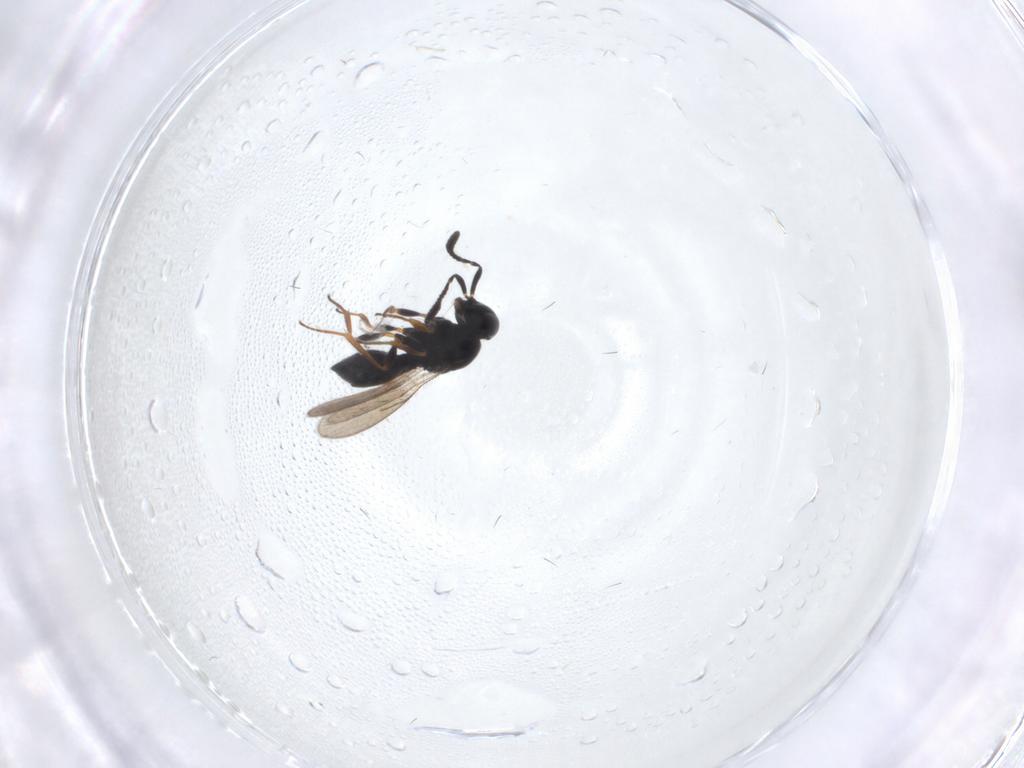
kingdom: Animalia
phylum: Arthropoda
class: Insecta
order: Hymenoptera
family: Scelionidae
